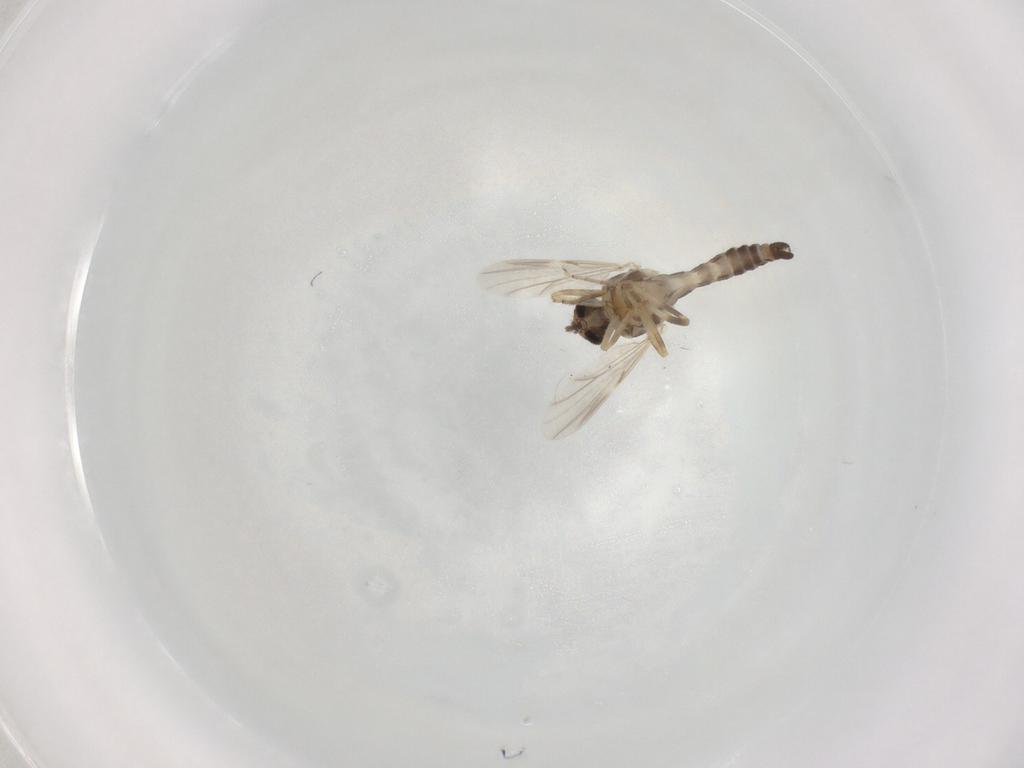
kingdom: Animalia
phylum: Arthropoda
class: Insecta
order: Diptera
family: Ceratopogonidae
